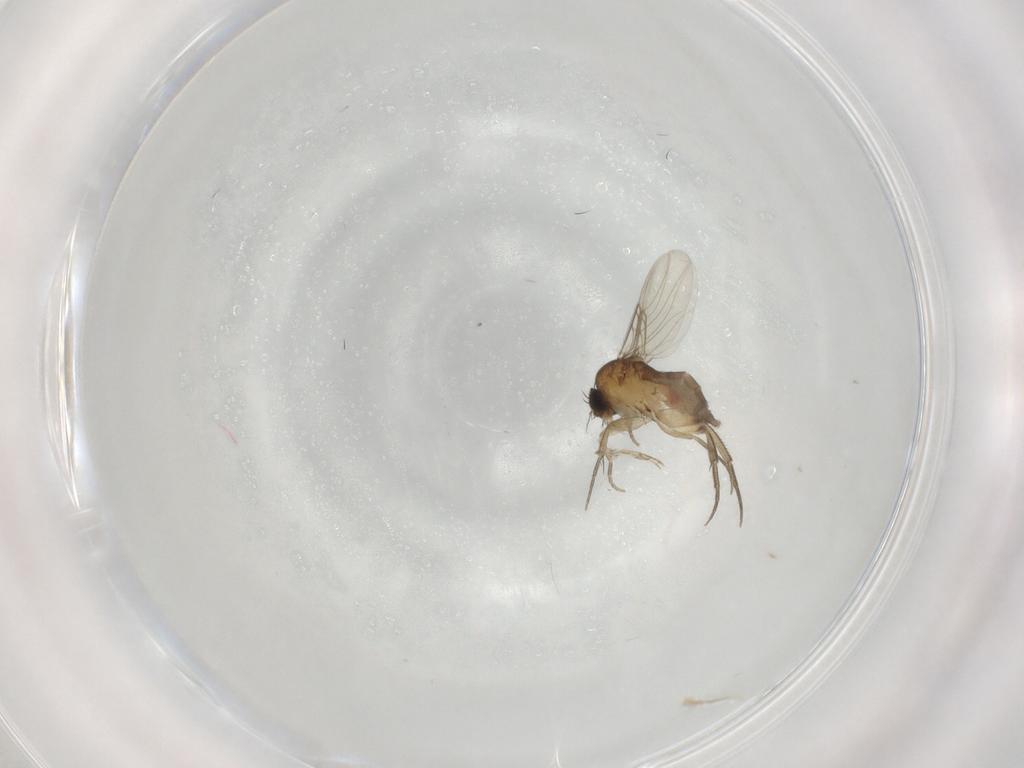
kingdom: Animalia
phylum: Arthropoda
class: Insecta
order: Diptera
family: Phoridae
